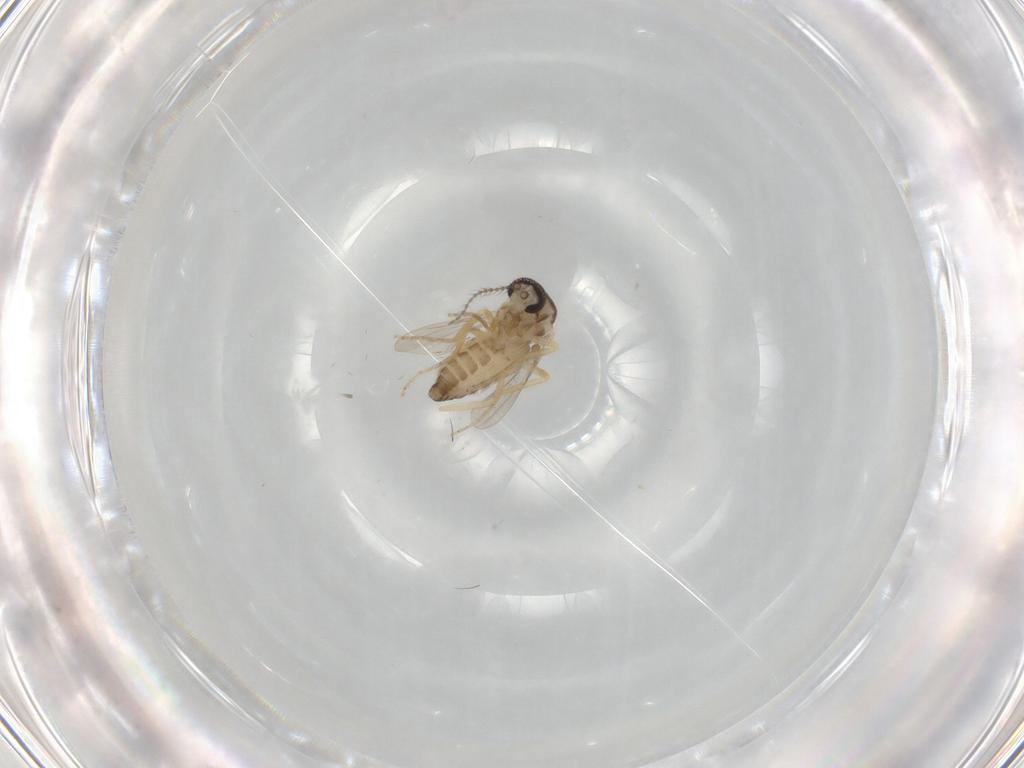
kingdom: Animalia
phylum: Arthropoda
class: Insecta
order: Diptera
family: Ceratopogonidae
